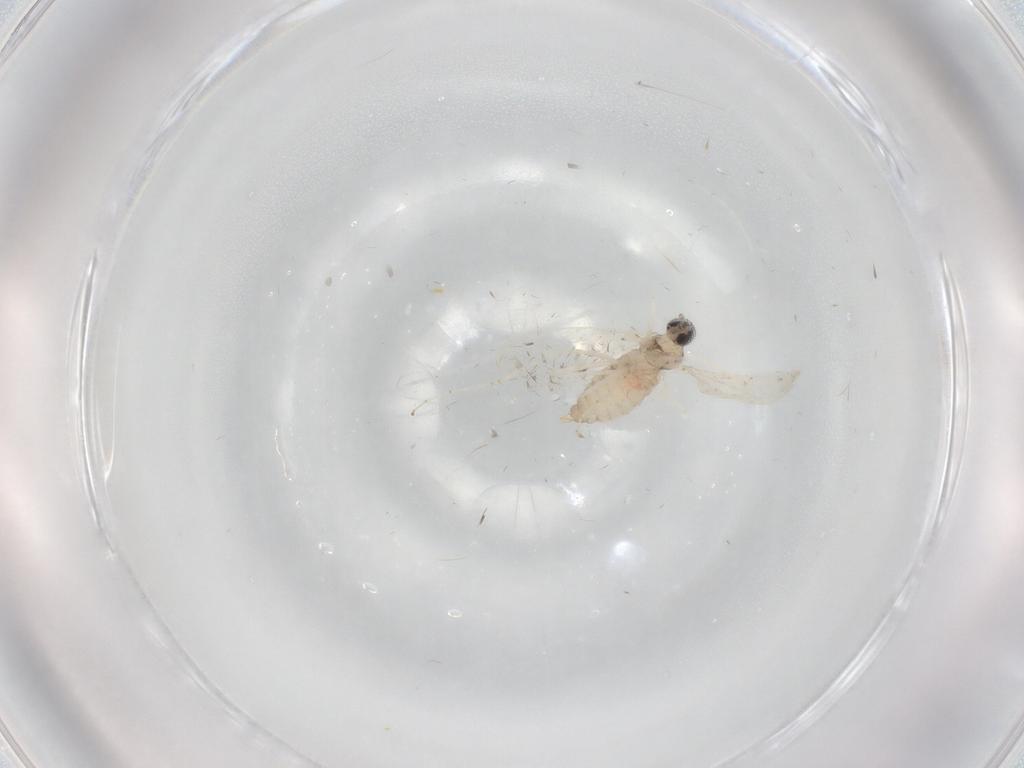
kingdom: Animalia
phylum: Arthropoda
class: Insecta
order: Diptera
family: Cecidomyiidae
